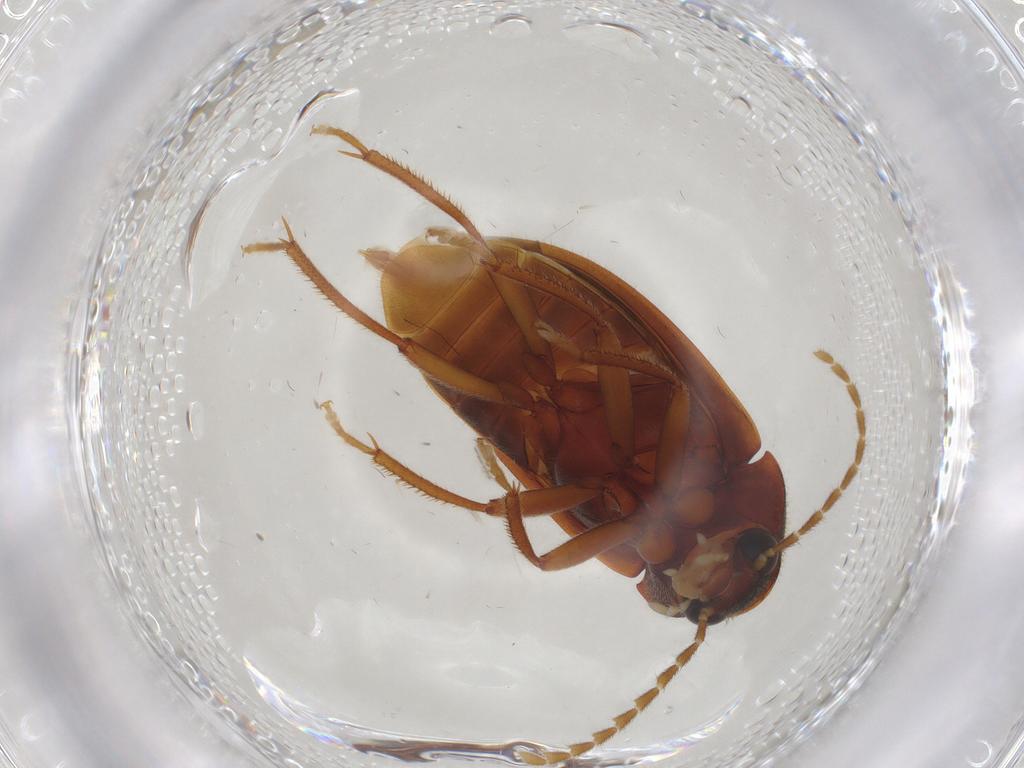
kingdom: Animalia
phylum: Arthropoda
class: Insecta
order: Coleoptera
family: Ptilodactylidae
